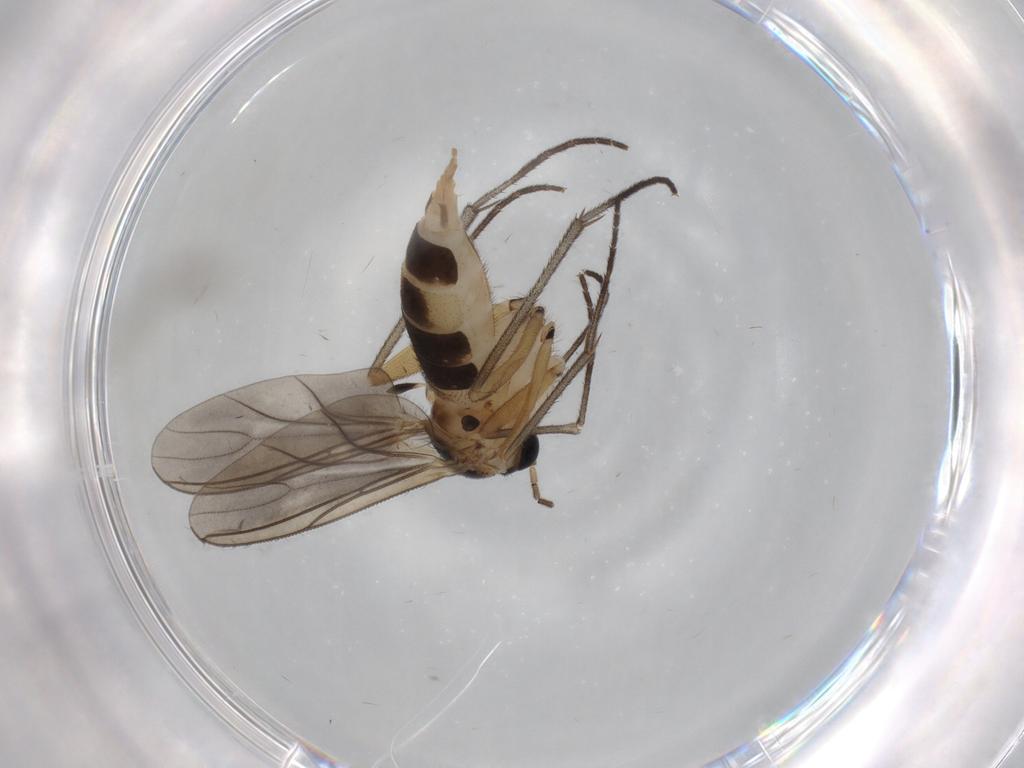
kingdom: Animalia
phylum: Arthropoda
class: Insecta
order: Diptera
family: Sciaridae
